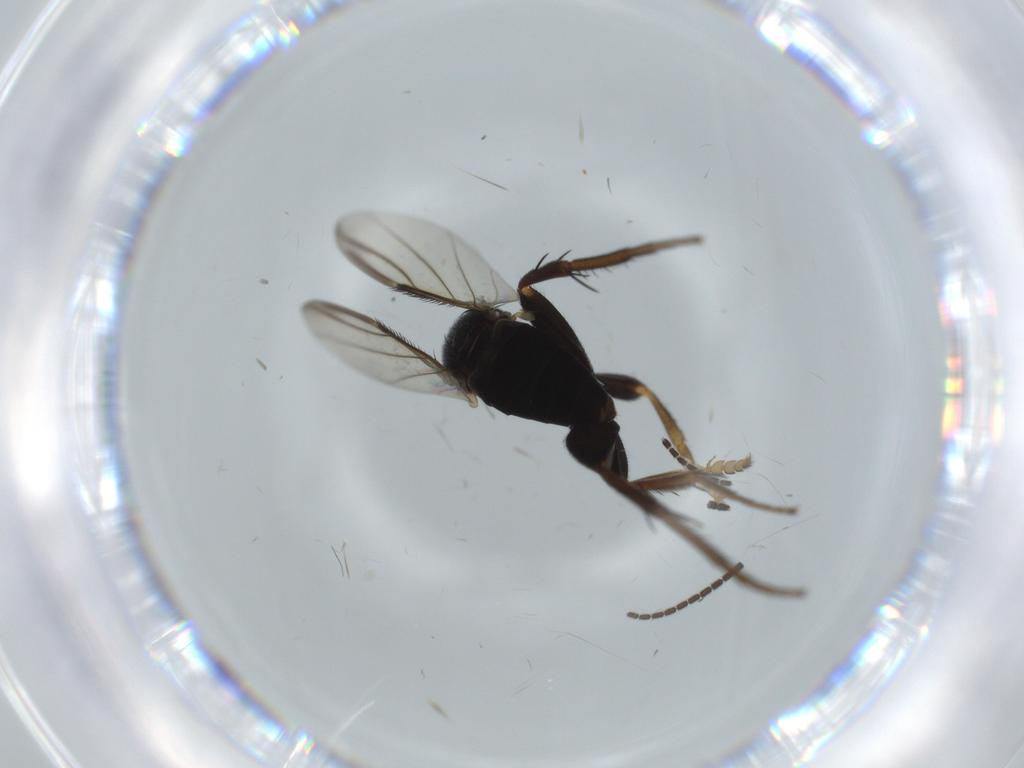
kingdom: Animalia
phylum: Arthropoda
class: Insecta
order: Diptera
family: Phoridae
